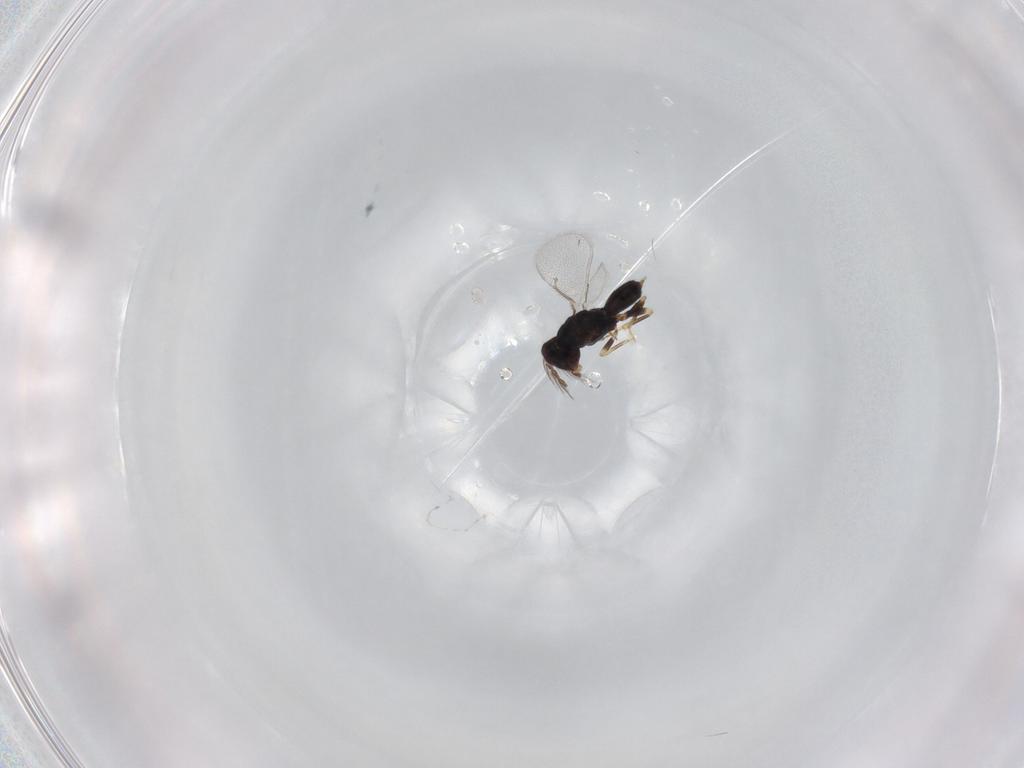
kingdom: Animalia
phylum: Arthropoda
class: Insecta
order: Hymenoptera
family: Eulophidae
